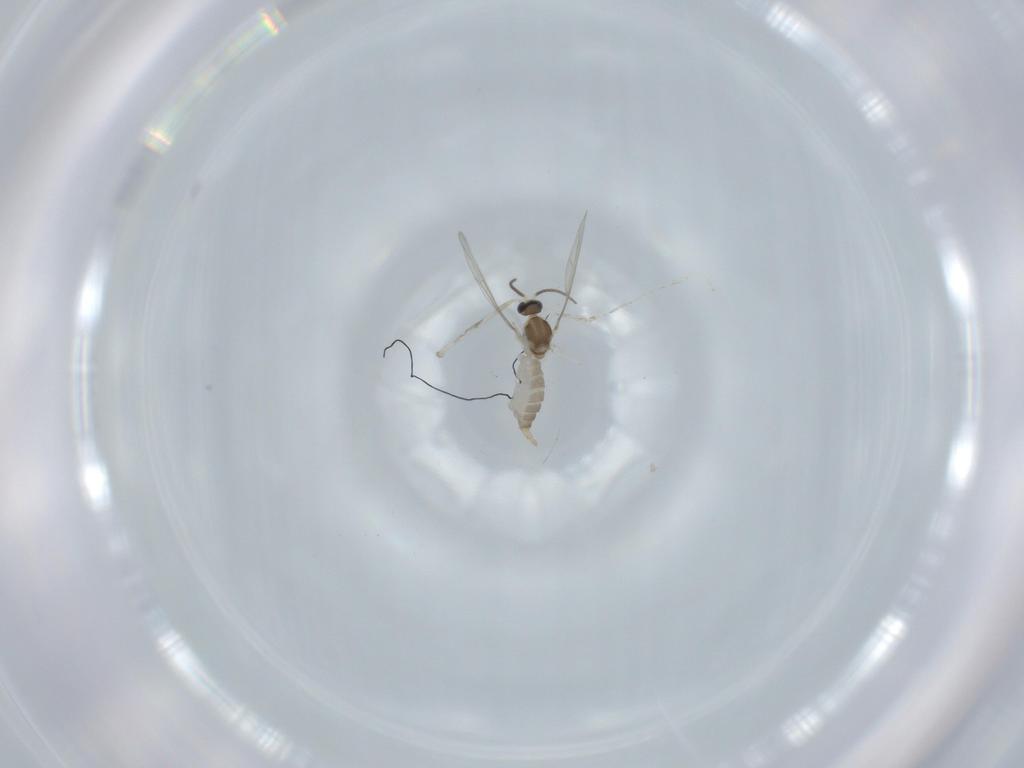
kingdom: Animalia
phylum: Arthropoda
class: Insecta
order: Diptera
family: Cecidomyiidae
